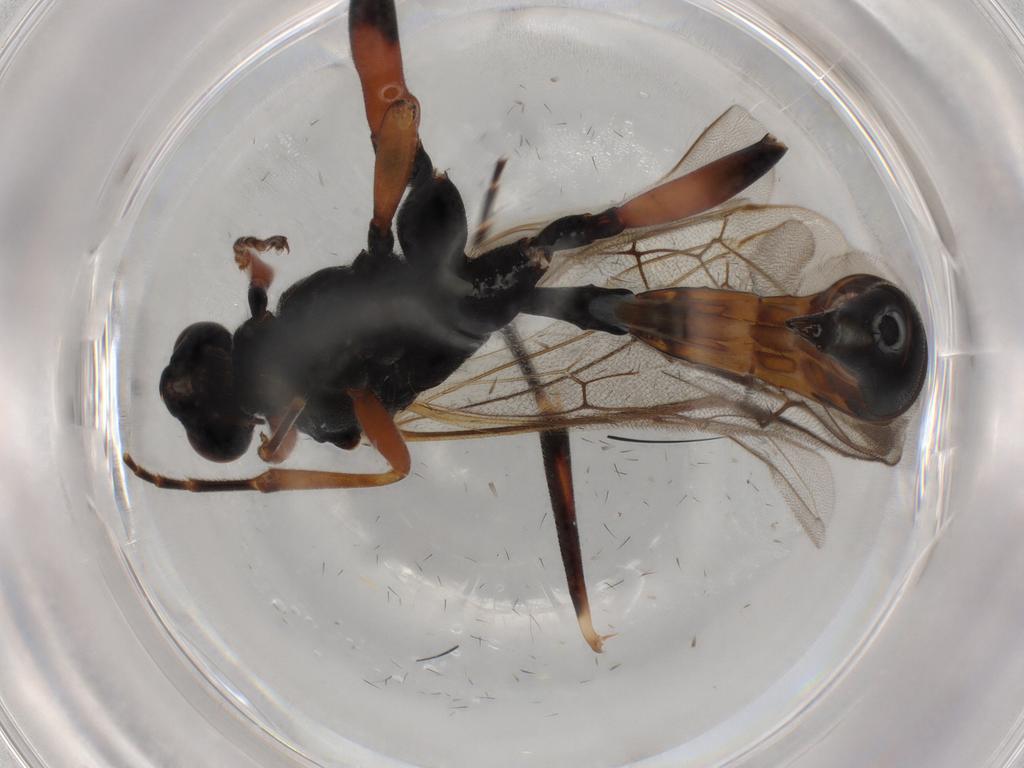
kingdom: Animalia
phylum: Arthropoda
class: Insecta
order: Hymenoptera
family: Ichneumonidae
